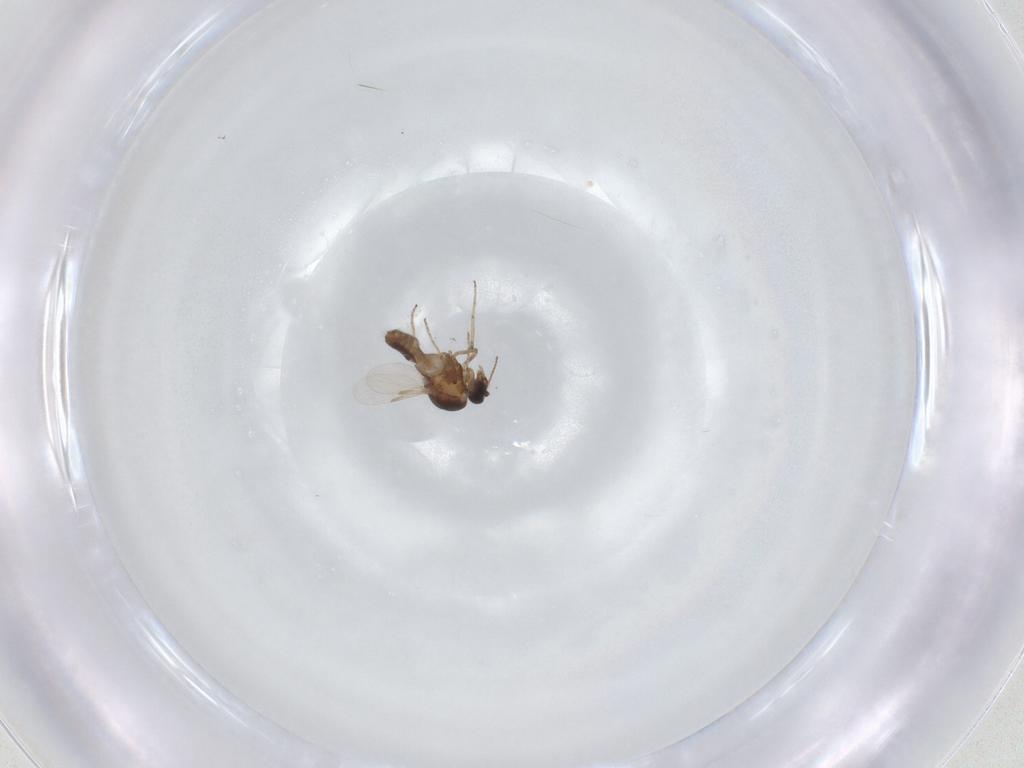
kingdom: Animalia
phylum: Arthropoda
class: Insecta
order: Diptera
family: Ceratopogonidae
